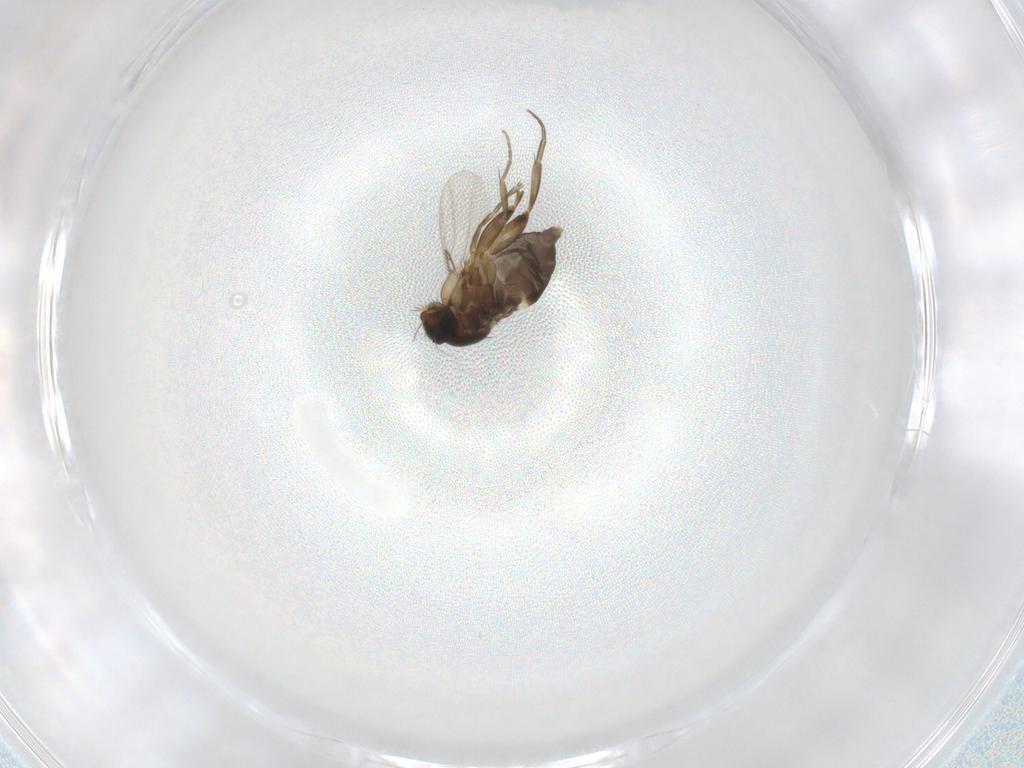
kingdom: Animalia
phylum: Arthropoda
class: Insecta
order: Diptera
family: Phoridae
